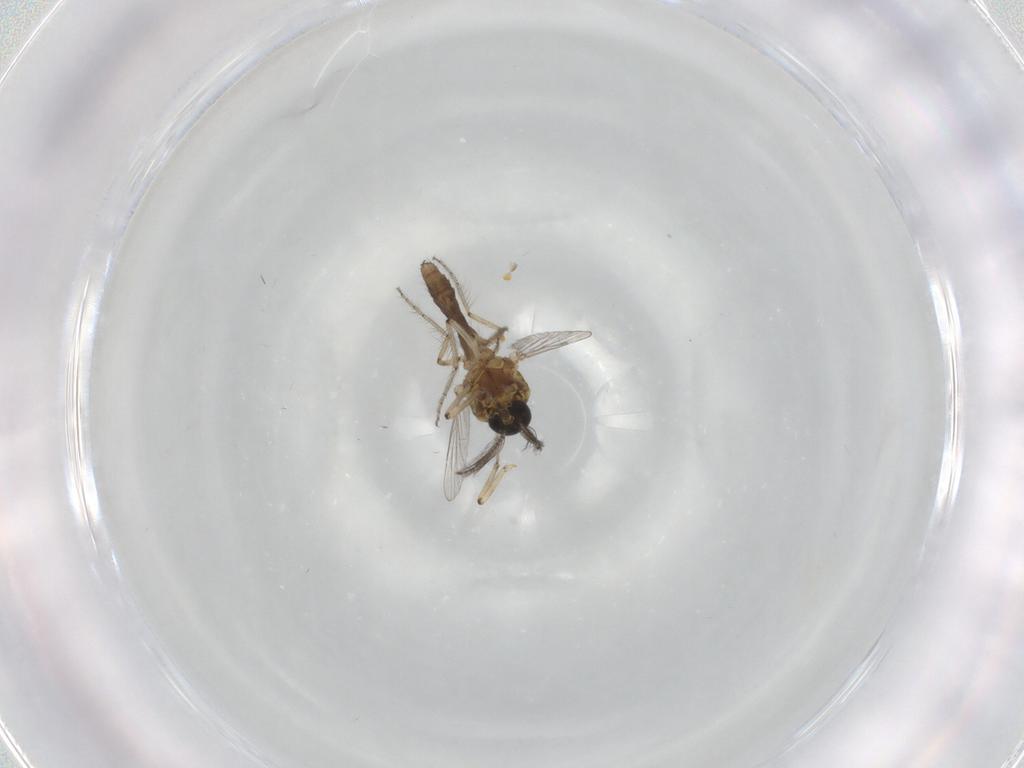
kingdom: Animalia
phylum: Arthropoda
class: Insecta
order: Diptera
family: Ceratopogonidae
